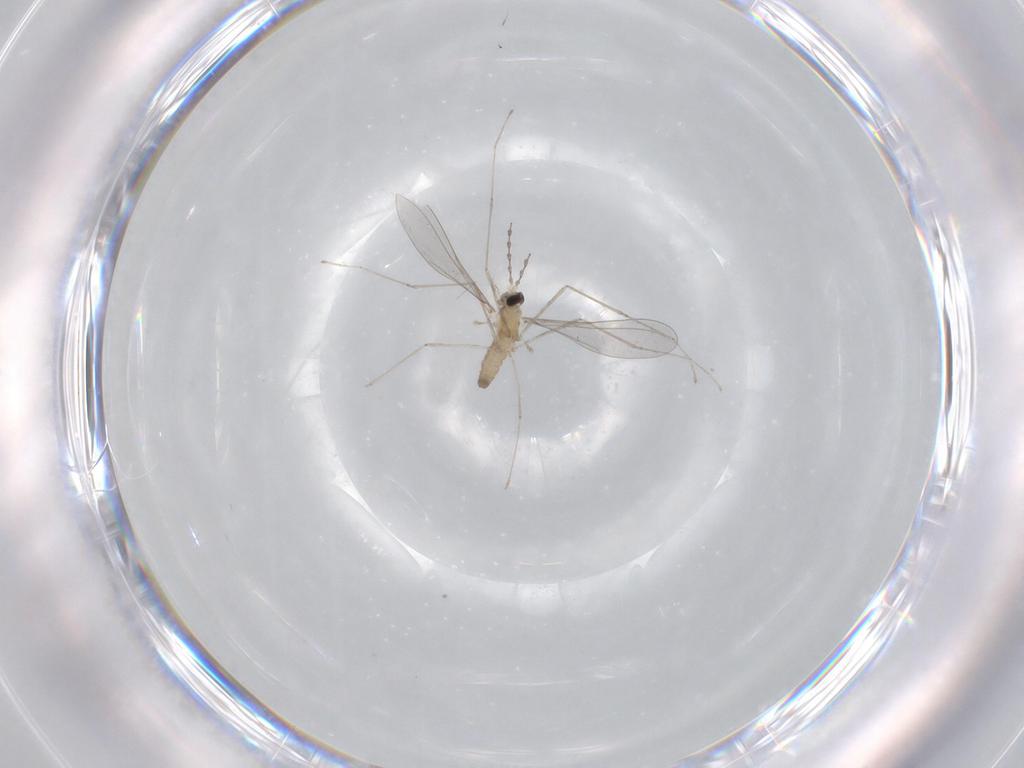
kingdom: Animalia
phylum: Arthropoda
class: Insecta
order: Diptera
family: Cecidomyiidae
